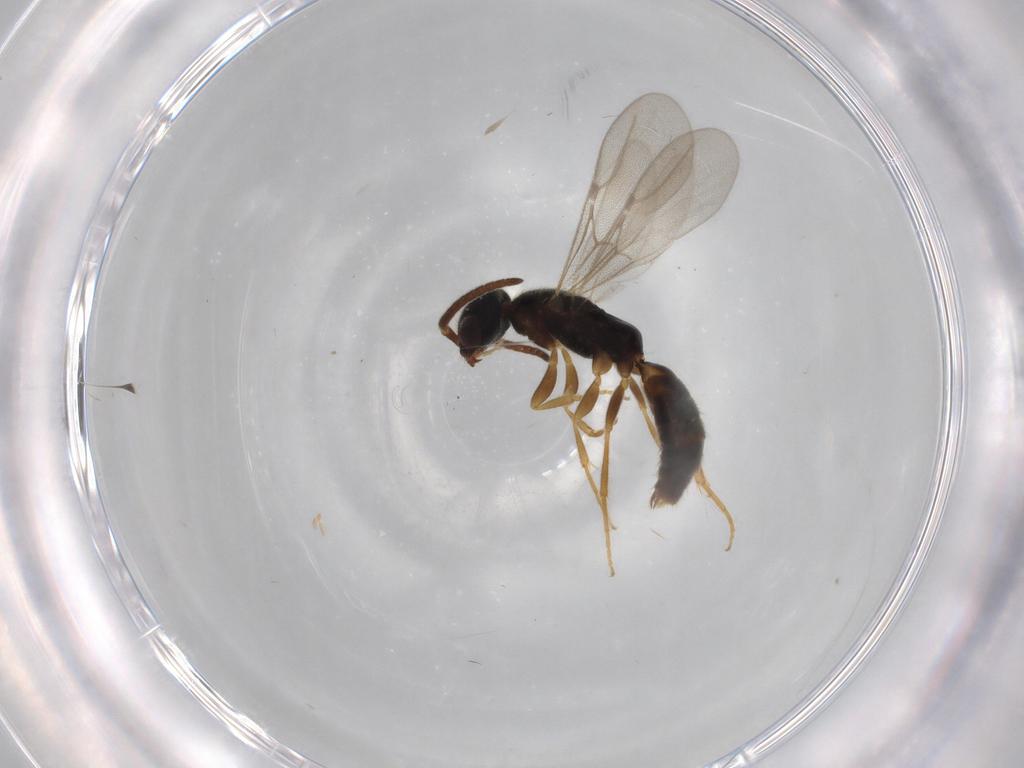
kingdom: Animalia
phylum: Arthropoda
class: Insecta
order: Hymenoptera
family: Bethylidae
